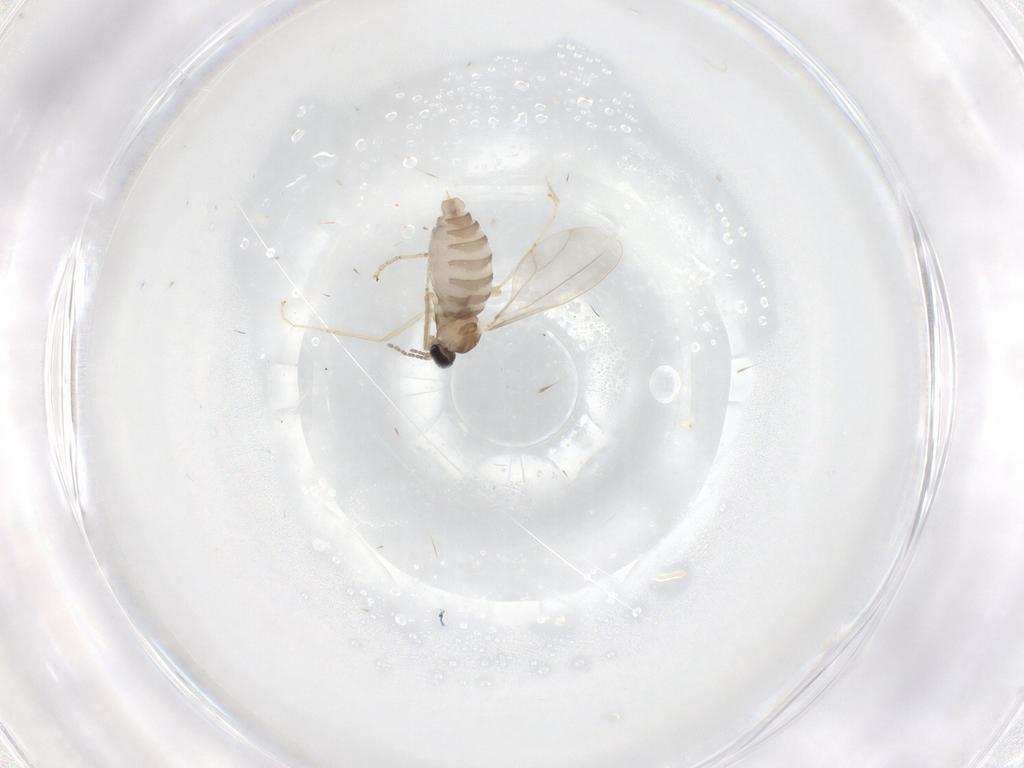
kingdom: Animalia
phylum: Arthropoda
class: Insecta
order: Diptera
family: Cecidomyiidae
